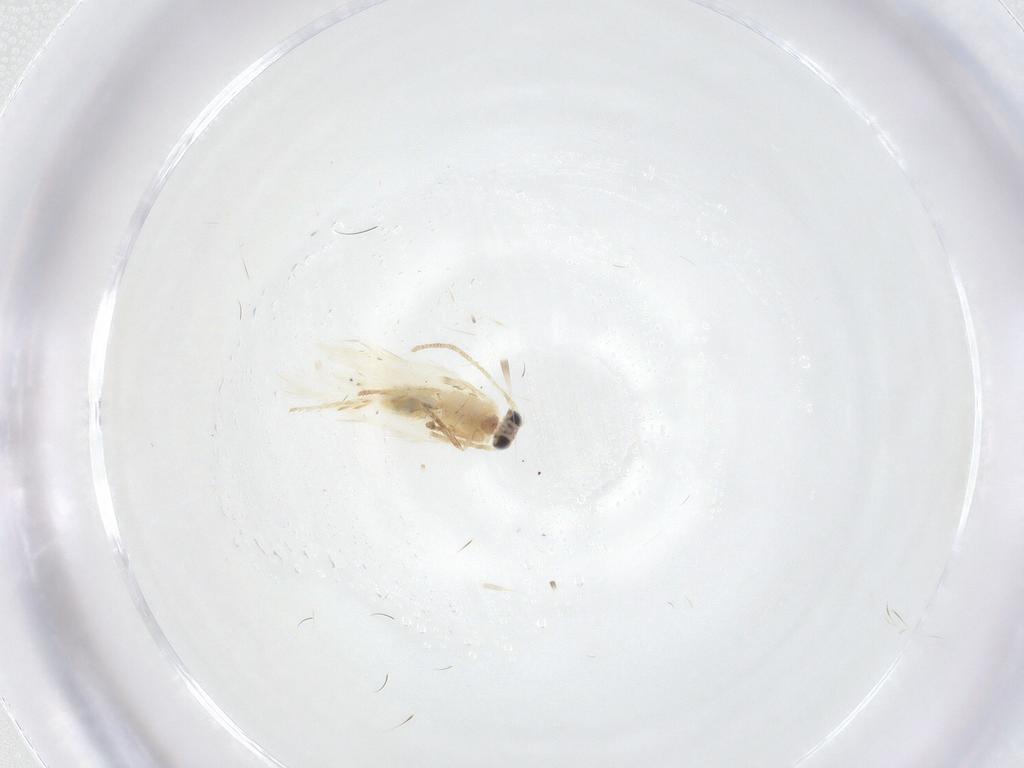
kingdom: Animalia
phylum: Arthropoda
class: Insecta
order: Lepidoptera
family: Nepticulidae
